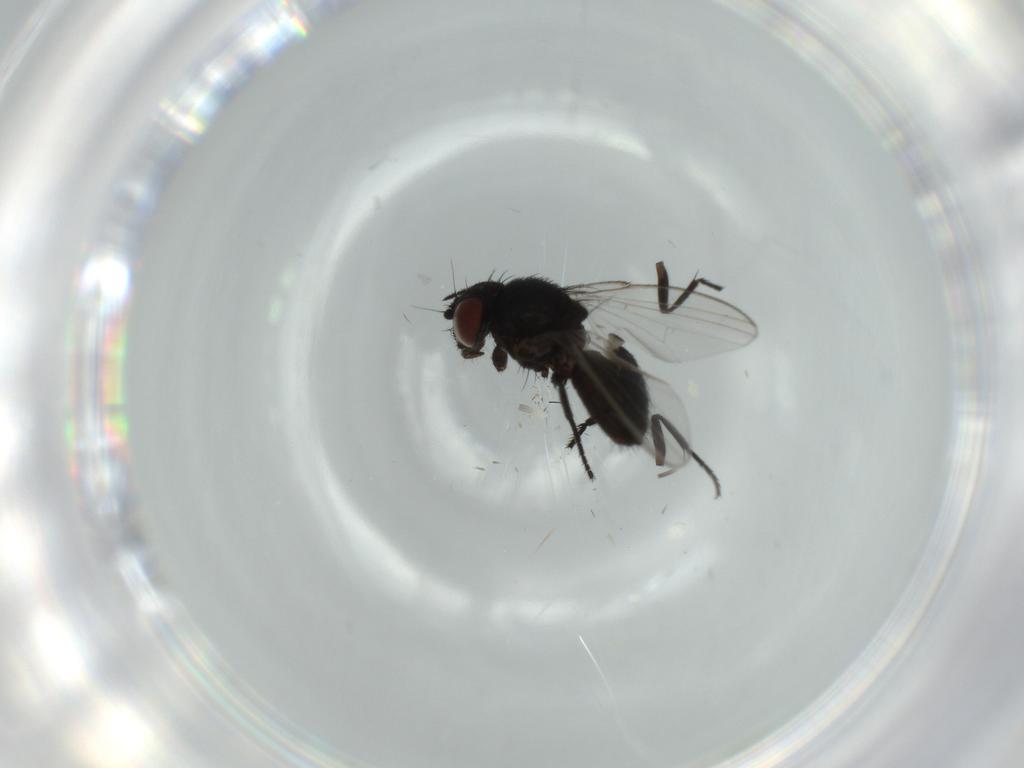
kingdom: Animalia
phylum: Arthropoda
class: Insecta
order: Diptera
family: Milichiidae
